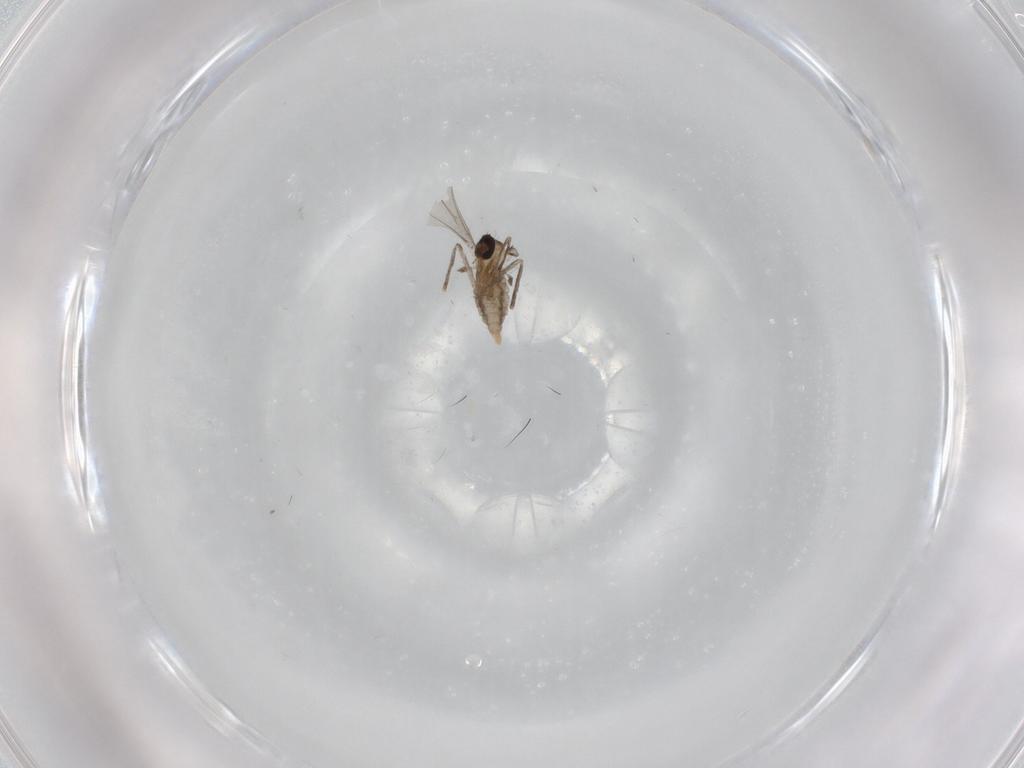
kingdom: Animalia
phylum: Arthropoda
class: Insecta
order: Diptera
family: Cecidomyiidae
